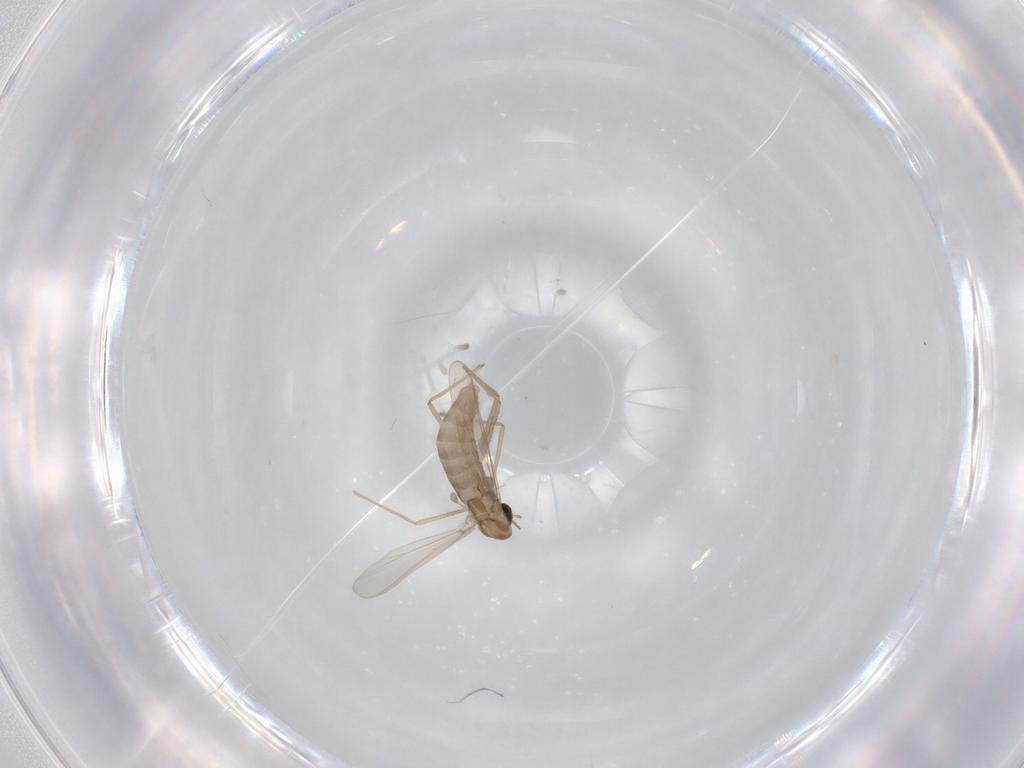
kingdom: Animalia
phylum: Arthropoda
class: Insecta
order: Diptera
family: Chironomidae
